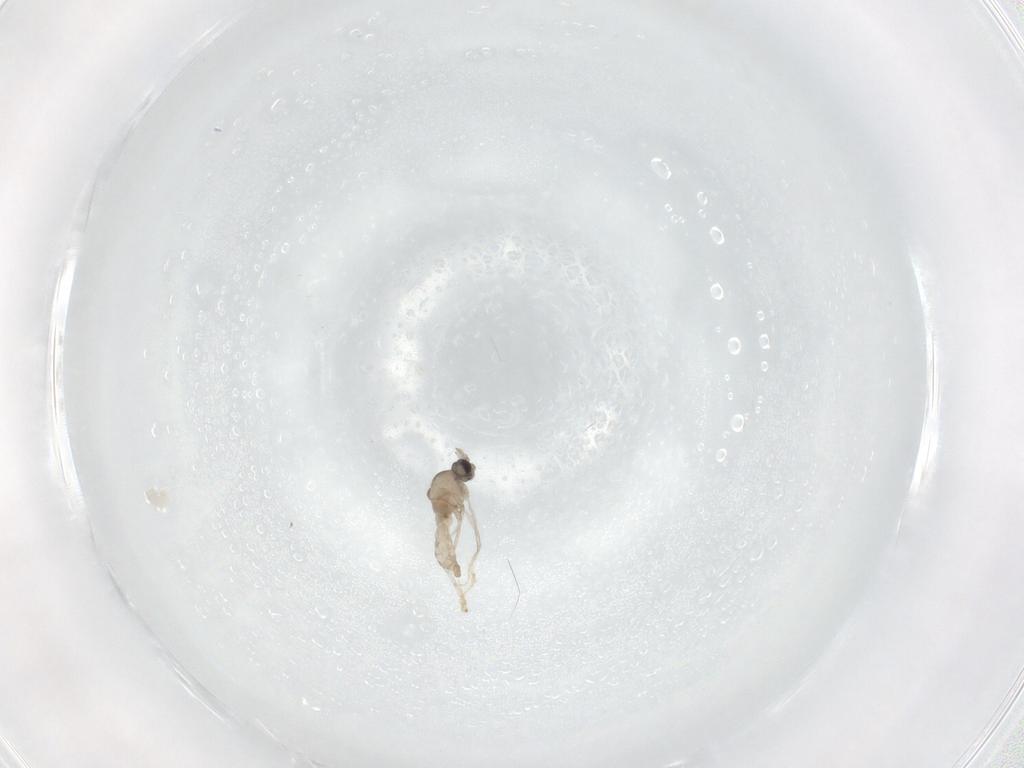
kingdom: Animalia
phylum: Arthropoda
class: Insecta
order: Diptera
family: Cecidomyiidae
